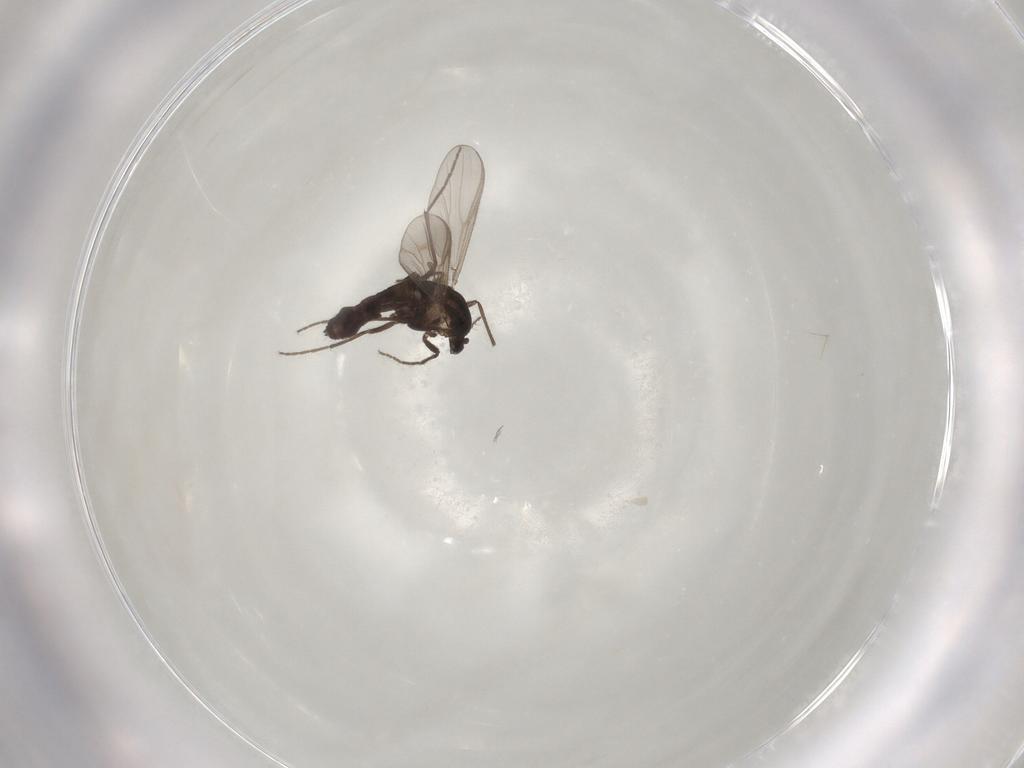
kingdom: Animalia
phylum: Arthropoda
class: Insecta
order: Diptera
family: Chironomidae
